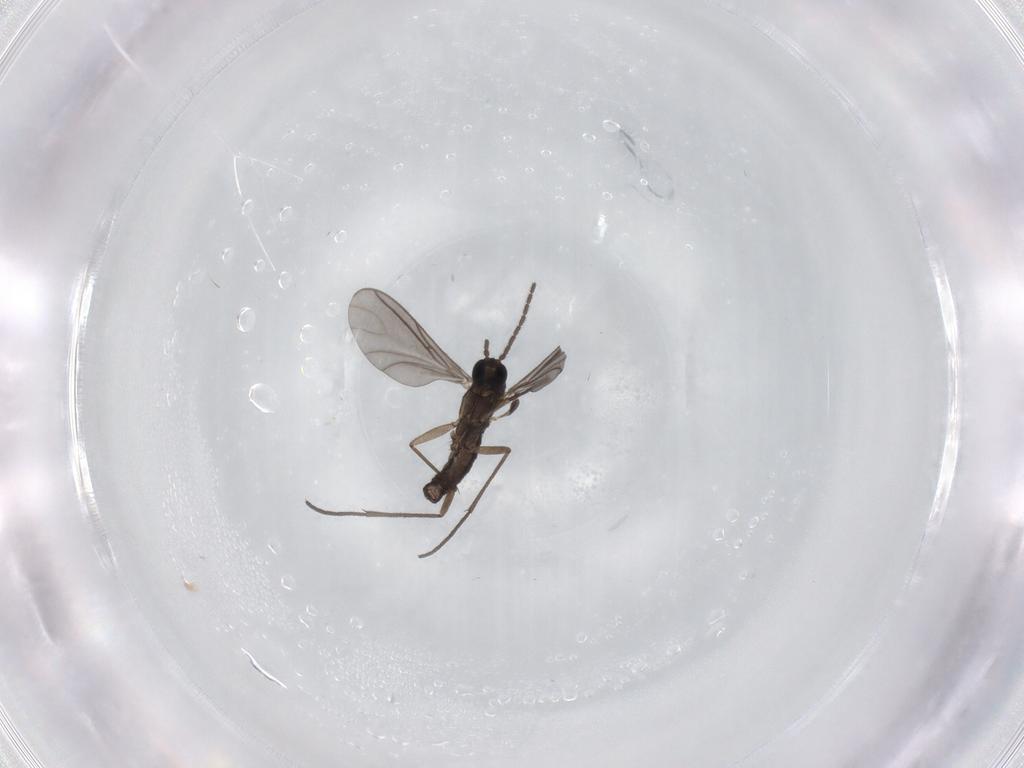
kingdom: Animalia
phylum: Arthropoda
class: Insecta
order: Diptera
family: Sciaridae
